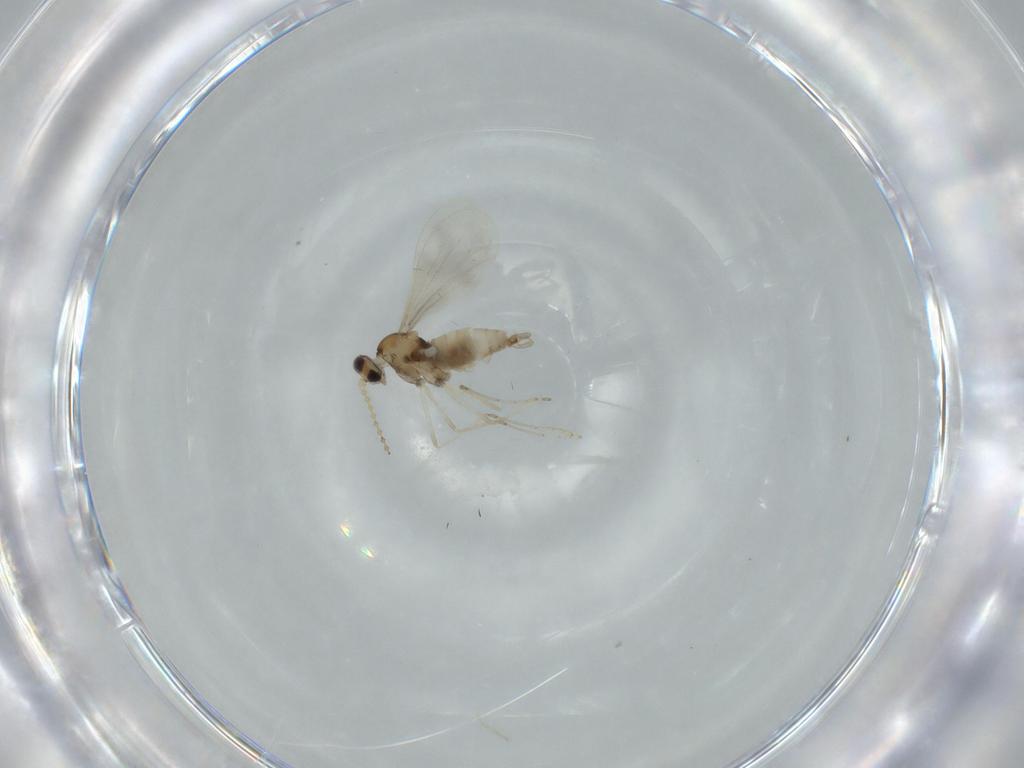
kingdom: Animalia
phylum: Arthropoda
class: Insecta
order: Diptera
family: Cecidomyiidae
